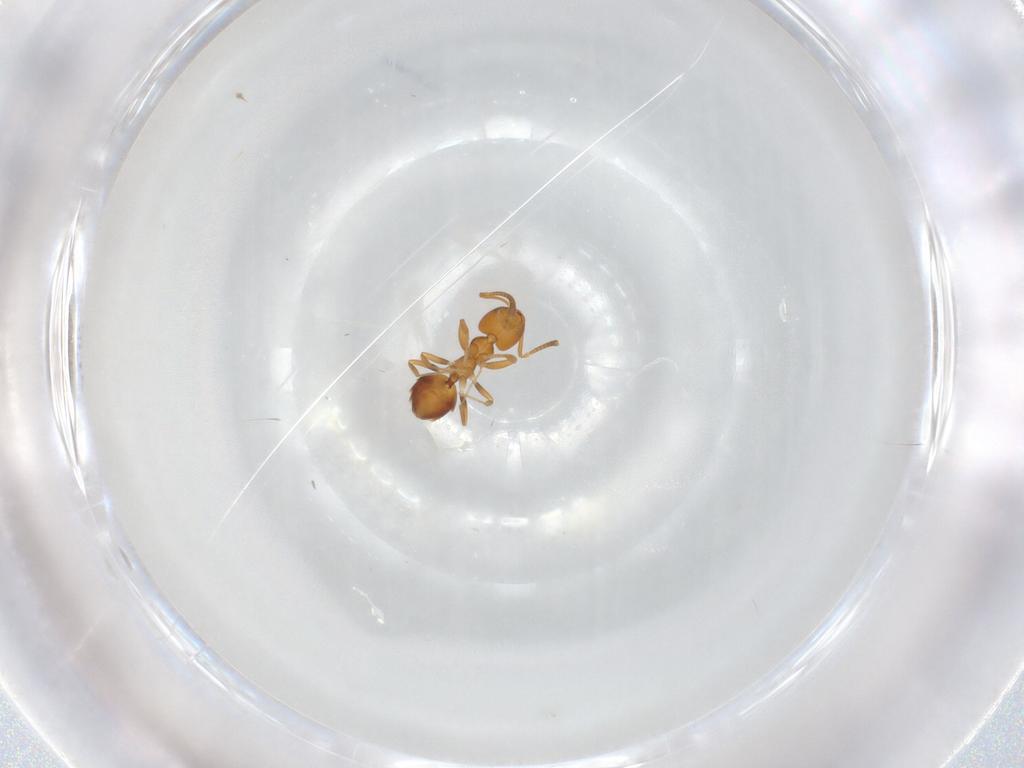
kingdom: Animalia
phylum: Arthropoda
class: Insecta
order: Hymenoptera
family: Formicidae
